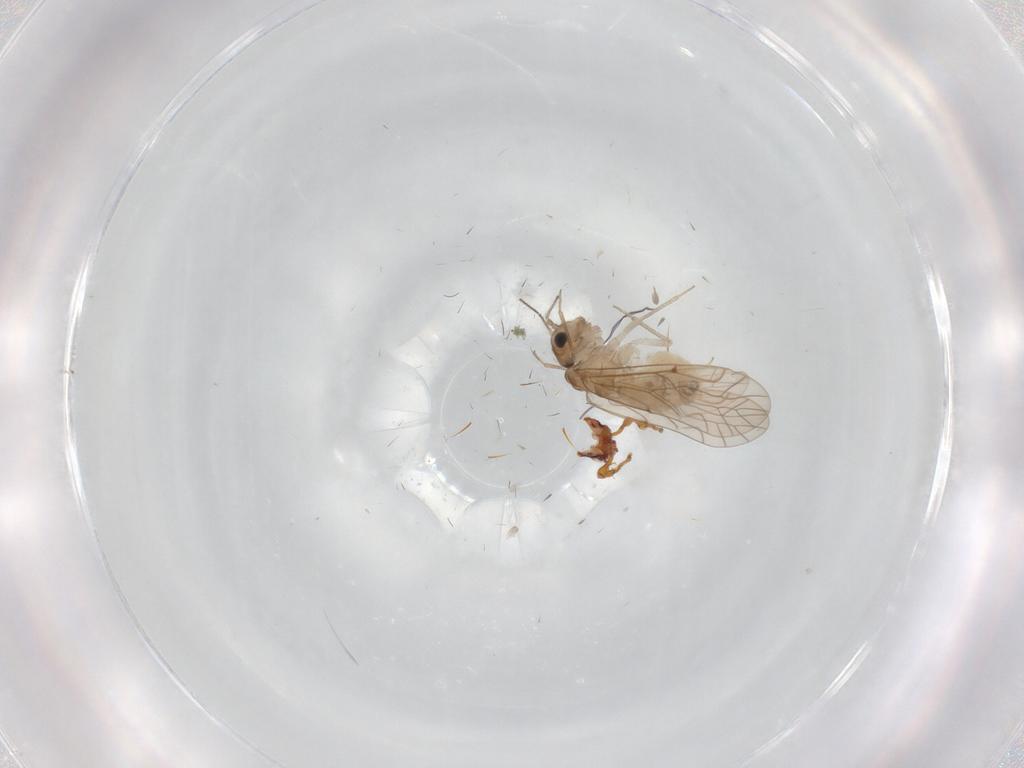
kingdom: Animalia
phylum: Arthropoda
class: Insecta
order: Psocodea
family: Lachesillidae
